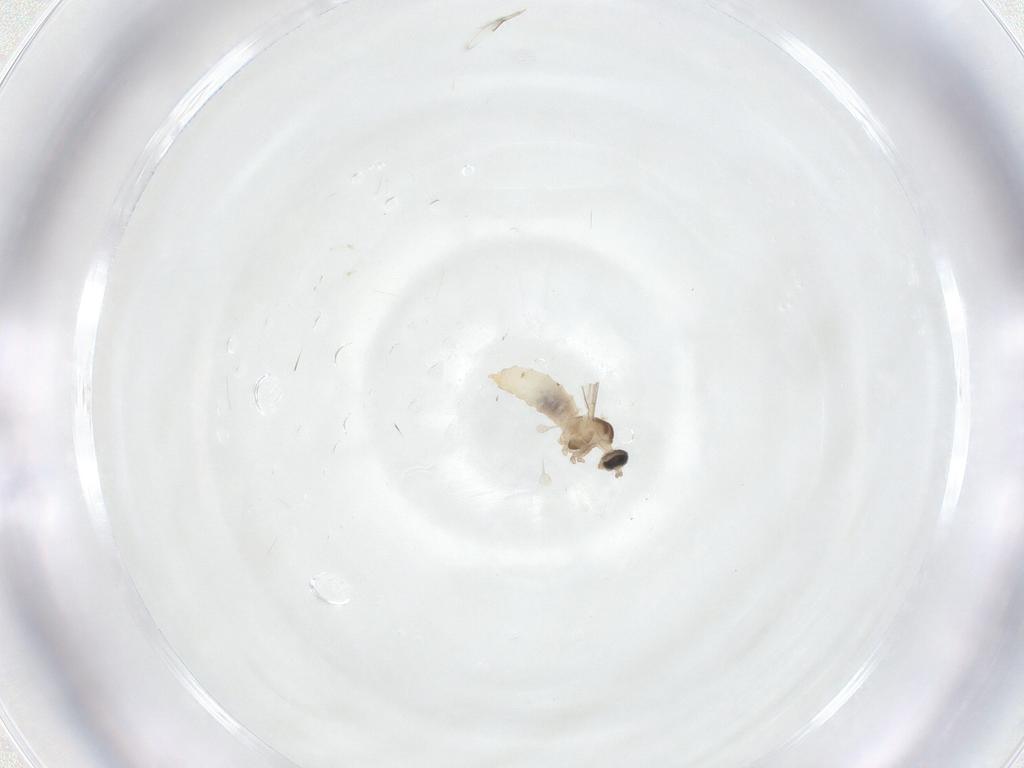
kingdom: Animalia
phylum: Arthropoda
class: Insecta
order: Diptera
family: Cecidomyiidae
